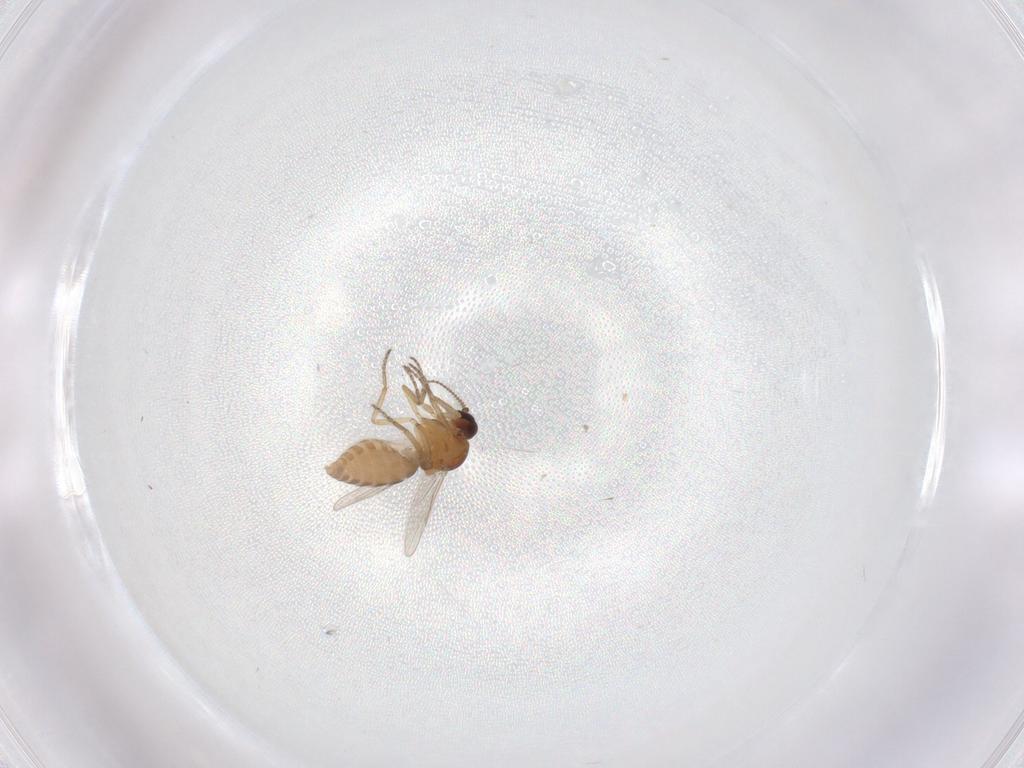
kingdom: Animalia
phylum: Arthropoda
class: Insecta
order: Diptera
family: Ceratopogonidae
